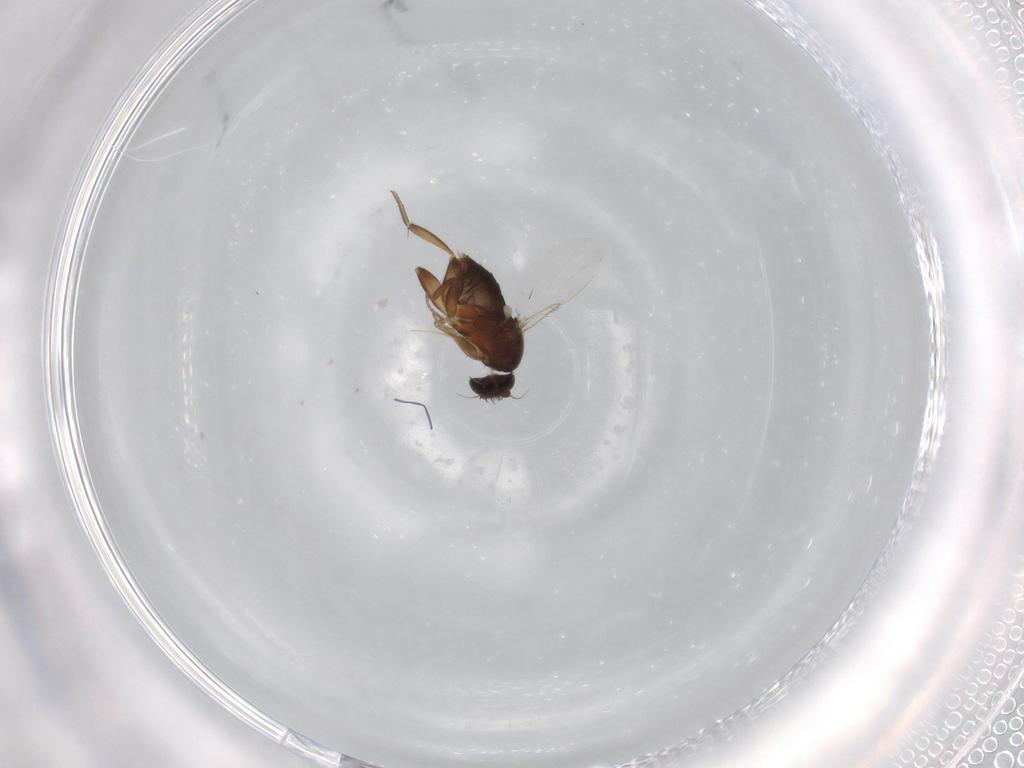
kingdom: Animalia
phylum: Arthropoda
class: Insecta
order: Diptera
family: Phoridae
